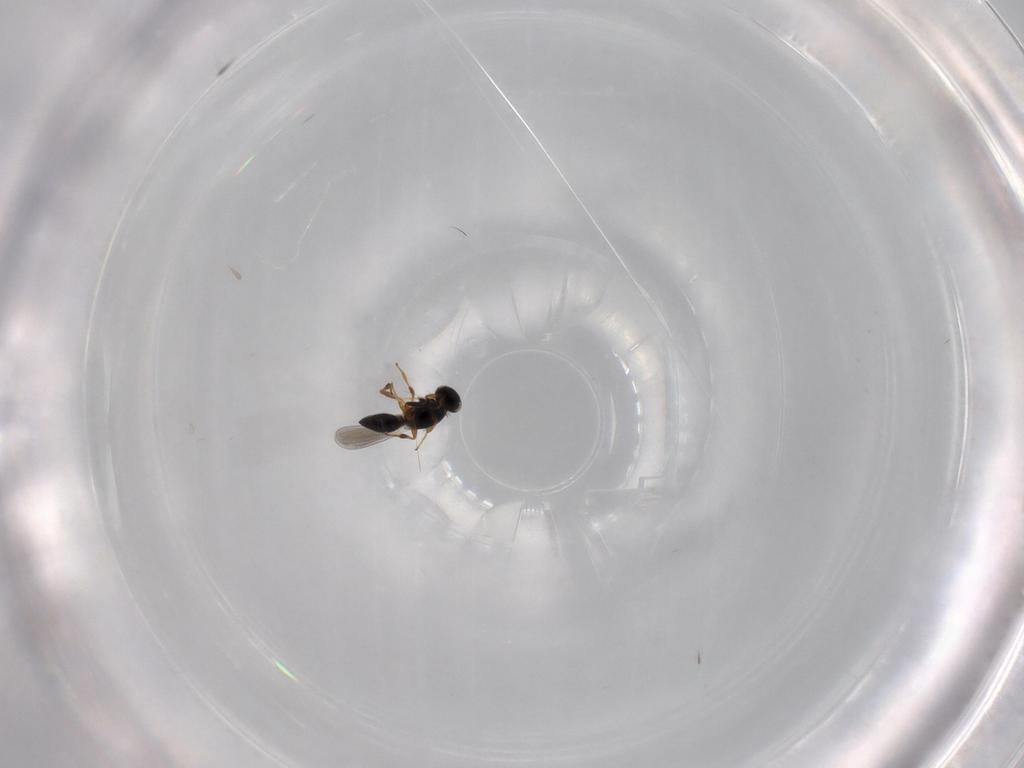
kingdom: Animalia
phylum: Arthropoda
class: Insecta
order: Hymenoptera
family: Platygastridae
